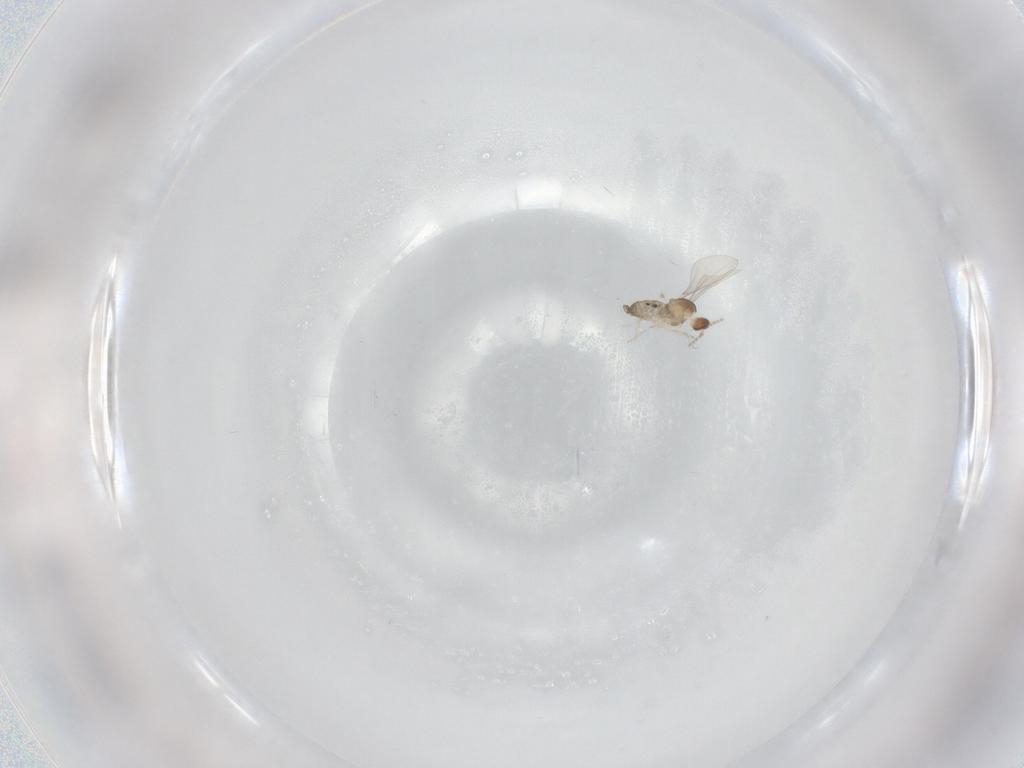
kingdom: Animalia
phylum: Arthropoda
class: Insecta
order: Diptera
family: Cecidomyiidae
